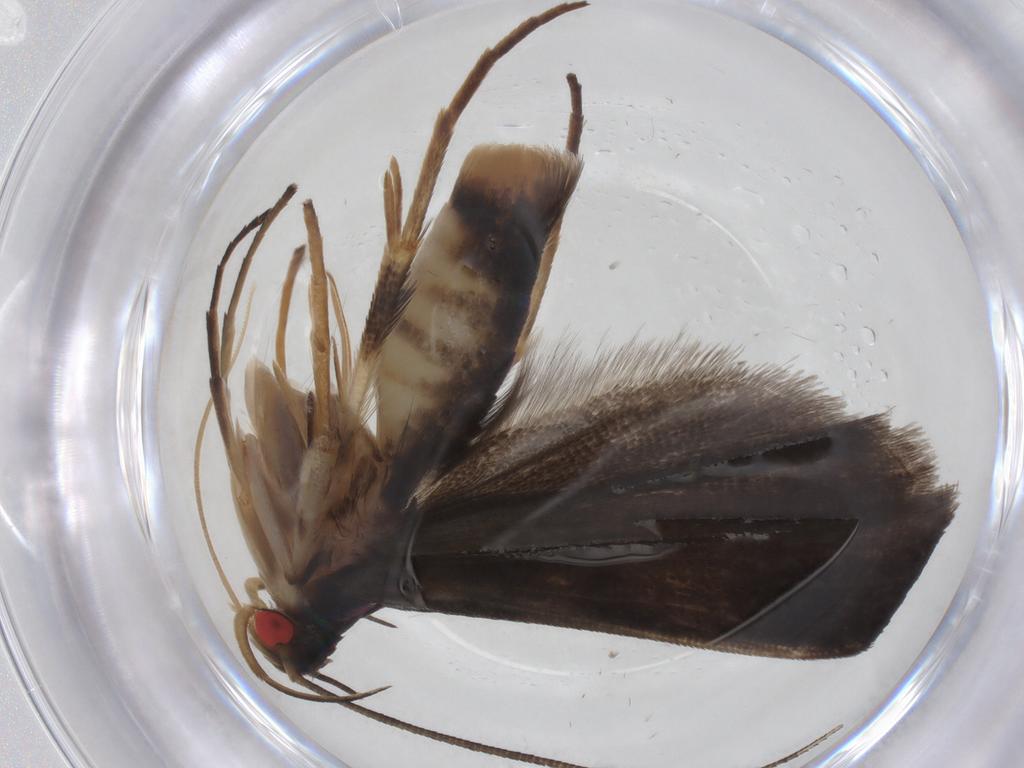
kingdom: Animalia
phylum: Arthropoda
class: Insecta
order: Lepidoptera
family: Crambidae
